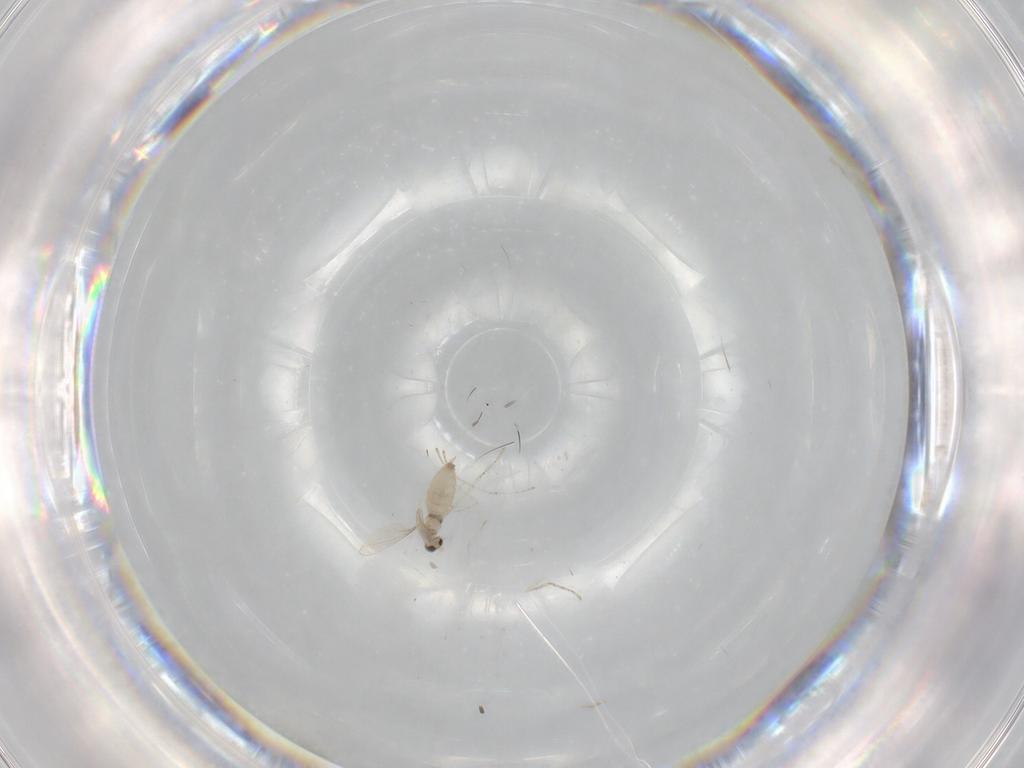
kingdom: Animalia
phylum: Arthropoda
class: Insecta
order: Diptera
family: Cecidomyiidae
